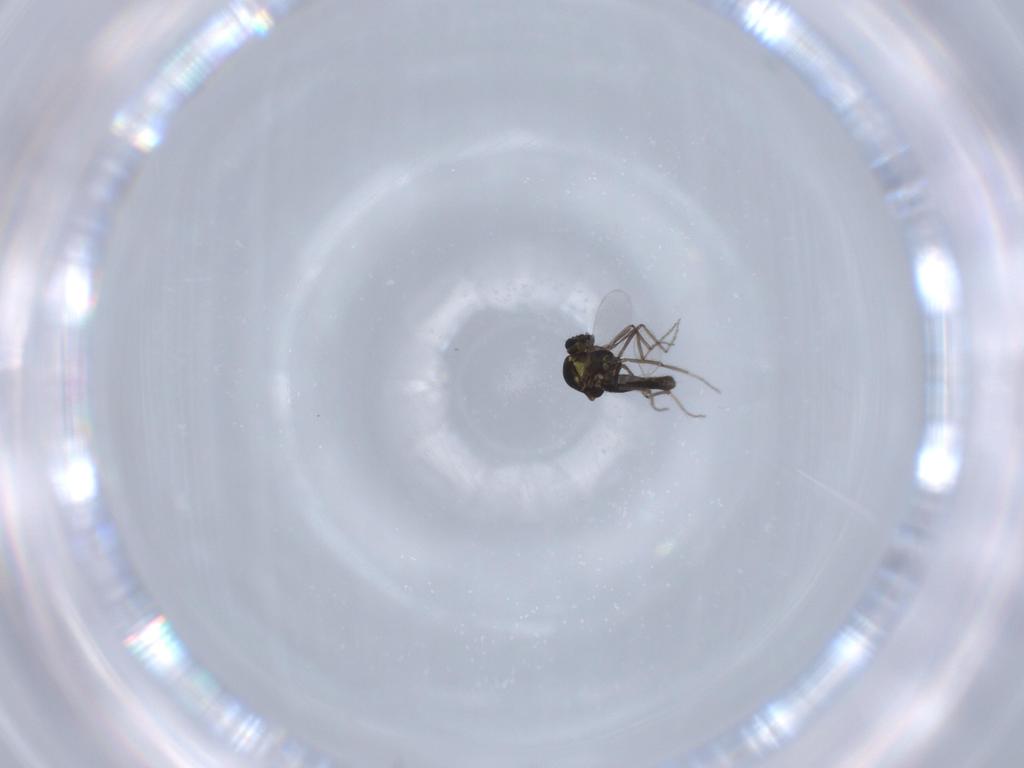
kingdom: Animalia
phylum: Arthropoda
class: Insecta
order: Diptera
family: Ceratopogonidae
